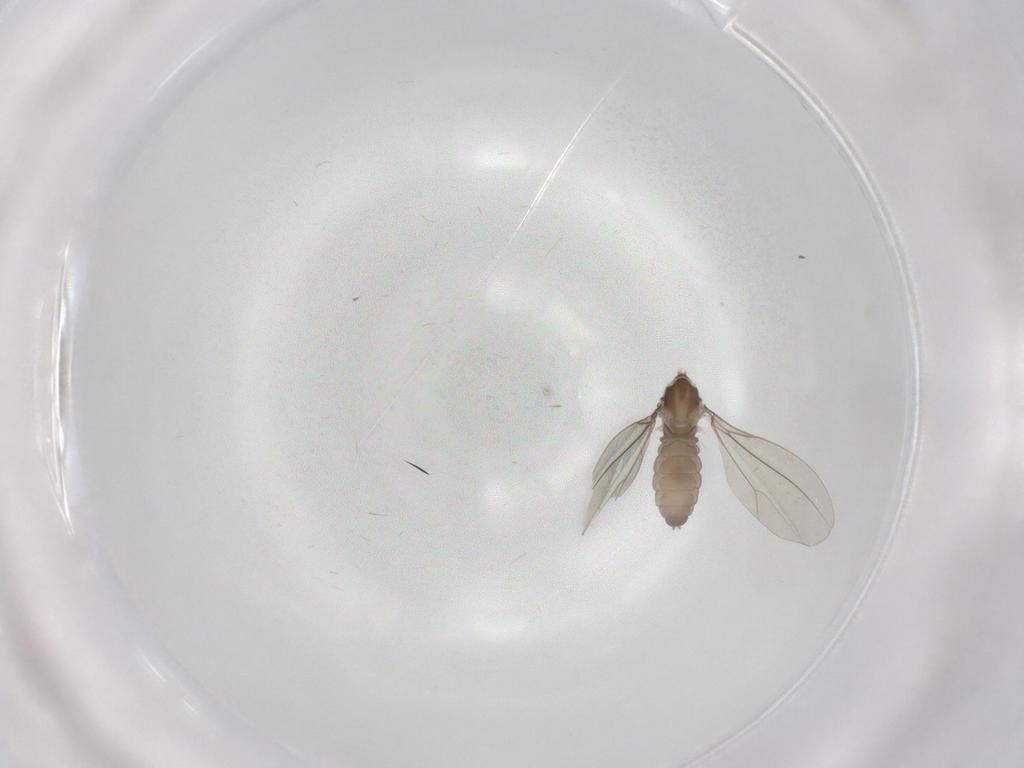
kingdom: Animalia
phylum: Arthropoda
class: Insecta
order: Diptera
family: Cecidomyiidae
